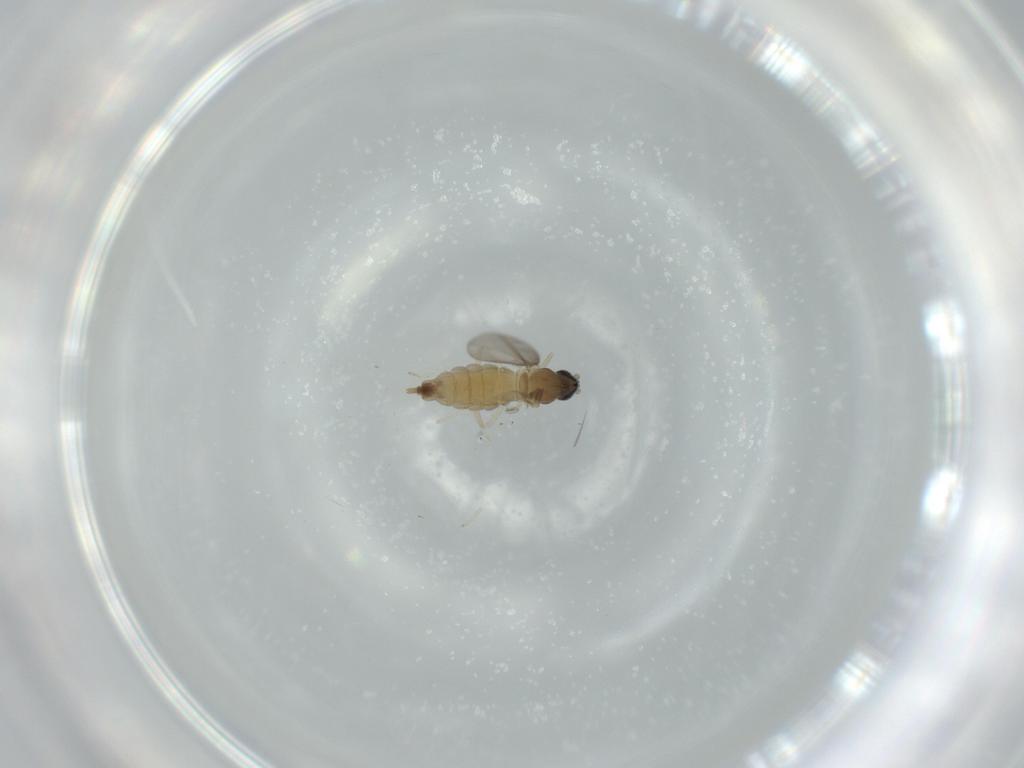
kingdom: Animalia
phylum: Arthropoda
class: Insecta
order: Diptera
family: Cecidomyiidae
